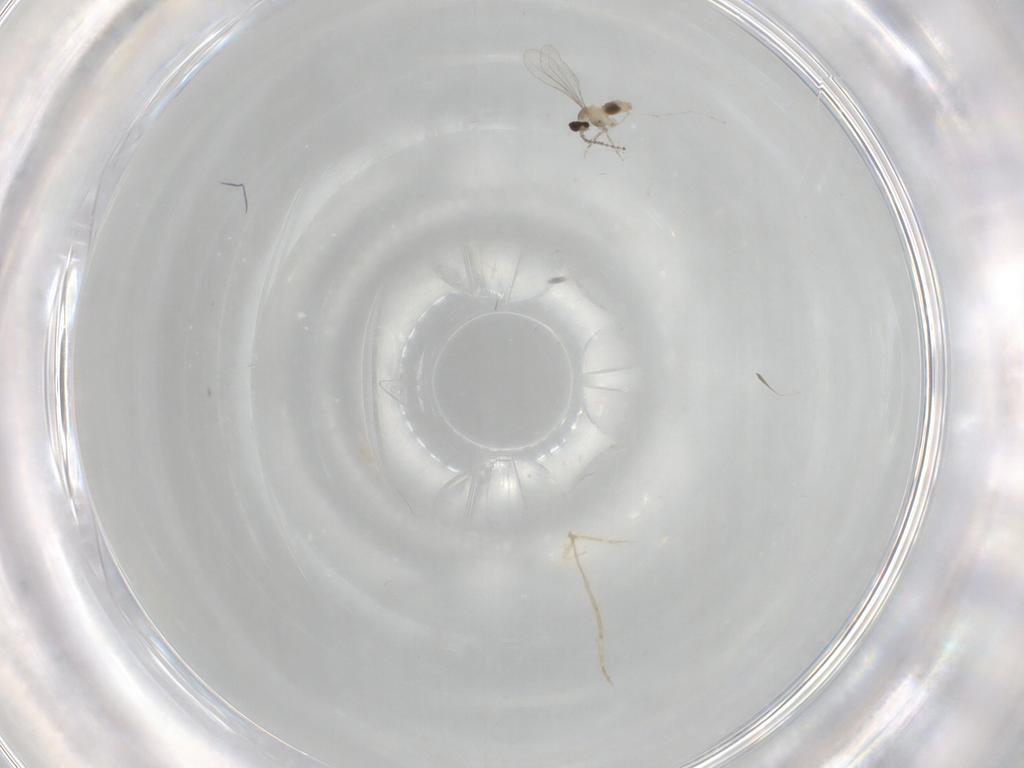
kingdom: Animalia
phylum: Arthropoda
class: Insecta
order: Diptera
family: Cecidomyiidae
